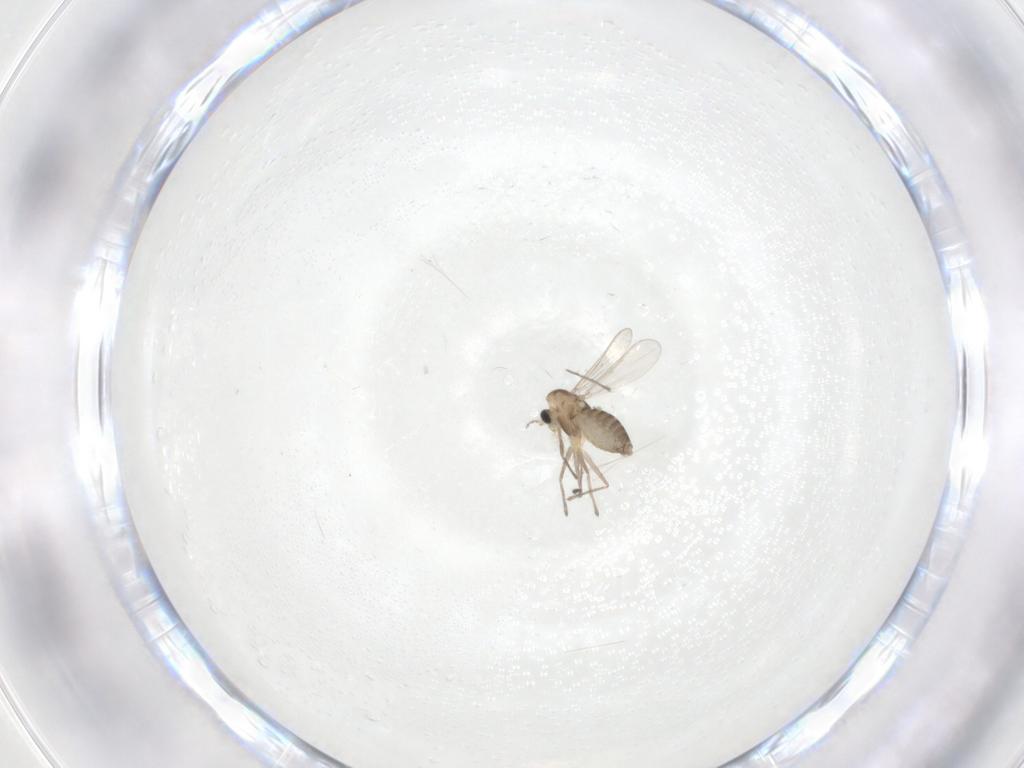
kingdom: Animalia
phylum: Arthropoda
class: Insecta
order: Diptera
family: Chironomidae
